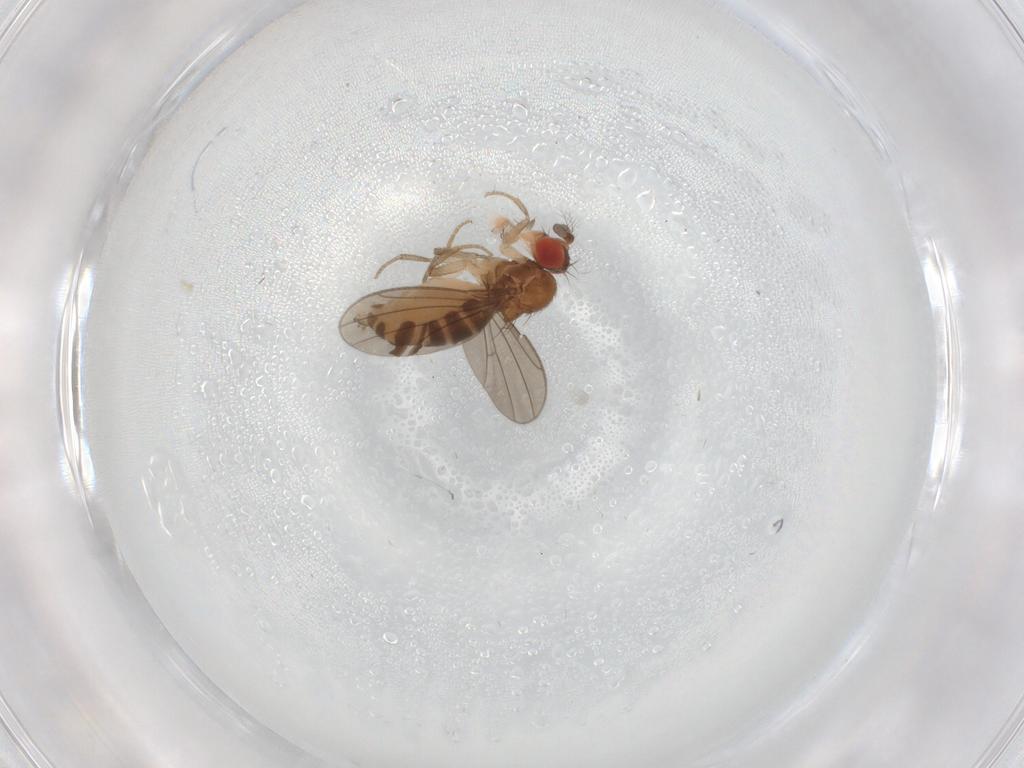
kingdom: Animalia
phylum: Arthropoda
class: Insecta
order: Diptera
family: Drosophilidae
